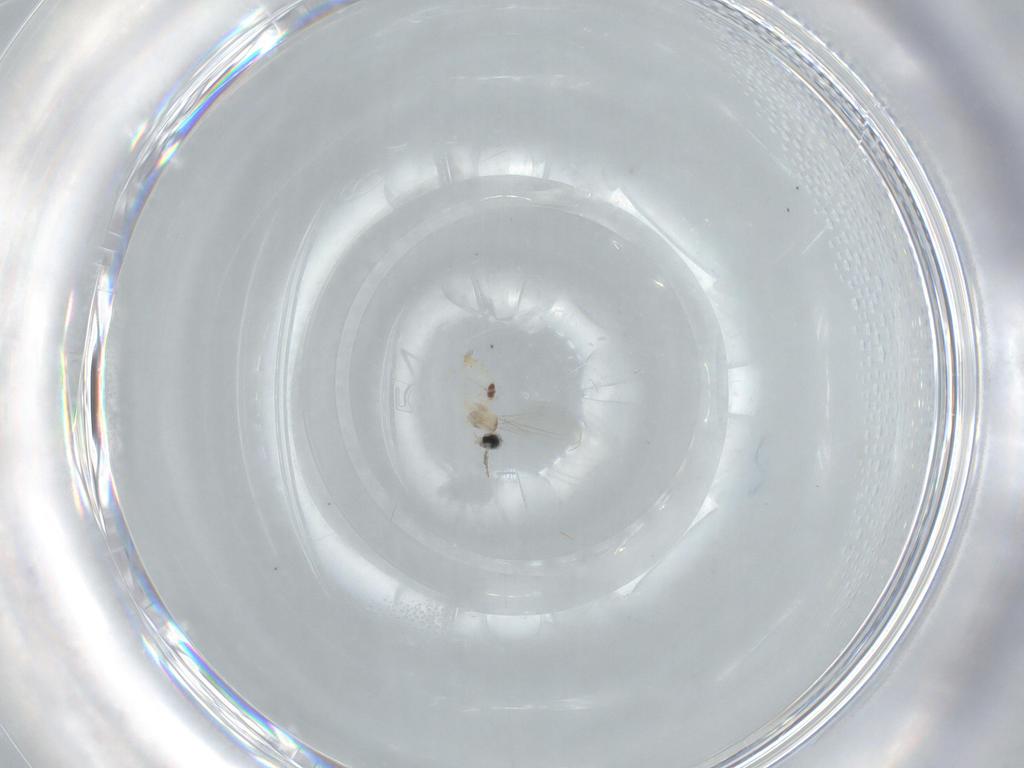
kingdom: Animalia
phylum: Arthropoda
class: Insecta
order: Diptera
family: Cecidomyiidae
